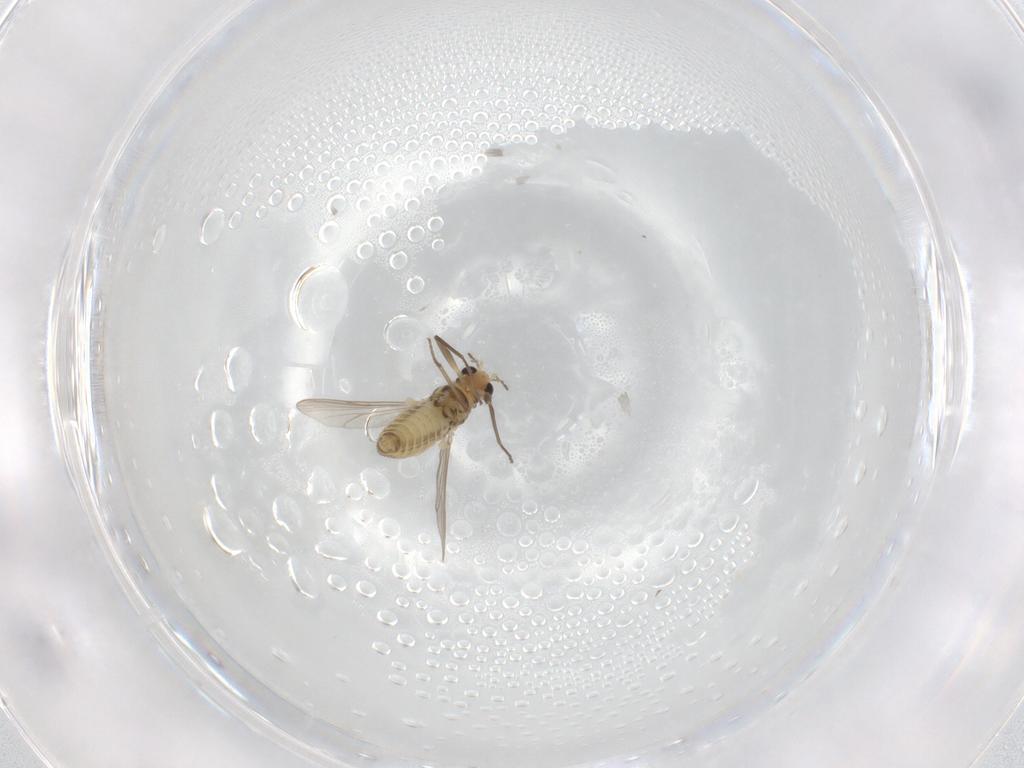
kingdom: Animalia
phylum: Arthropoda
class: Insecta
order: Diptera
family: Chironomidae
